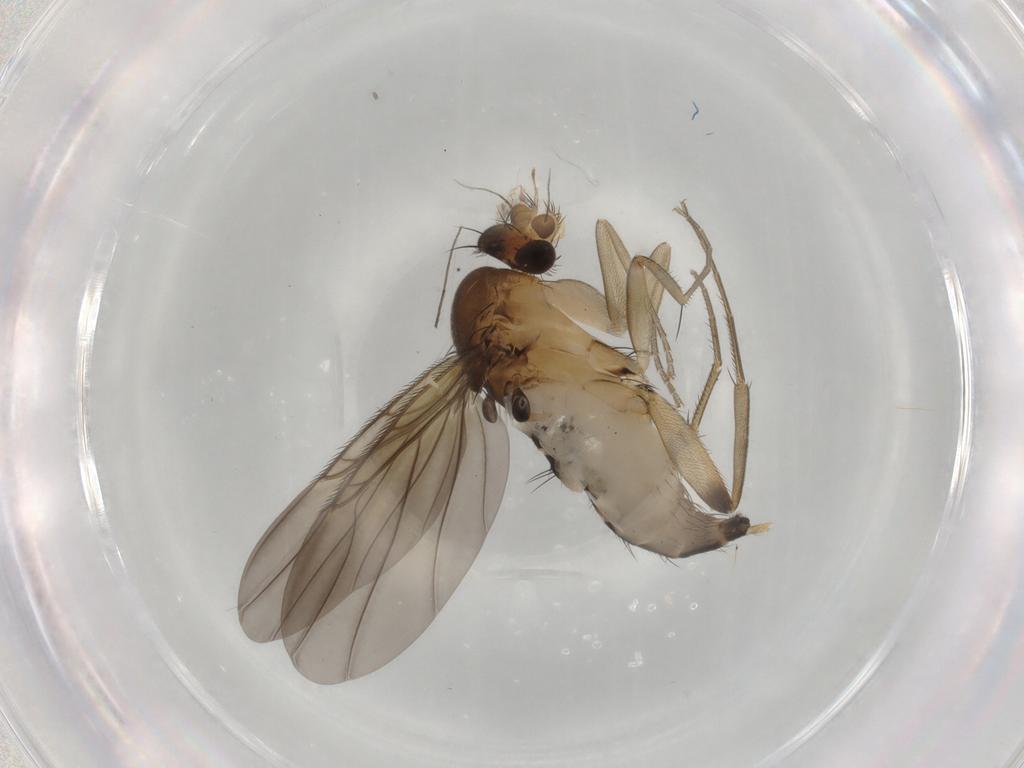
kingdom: Animalia
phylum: Arthropoda
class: Insecta
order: Diptera
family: Phoridae
